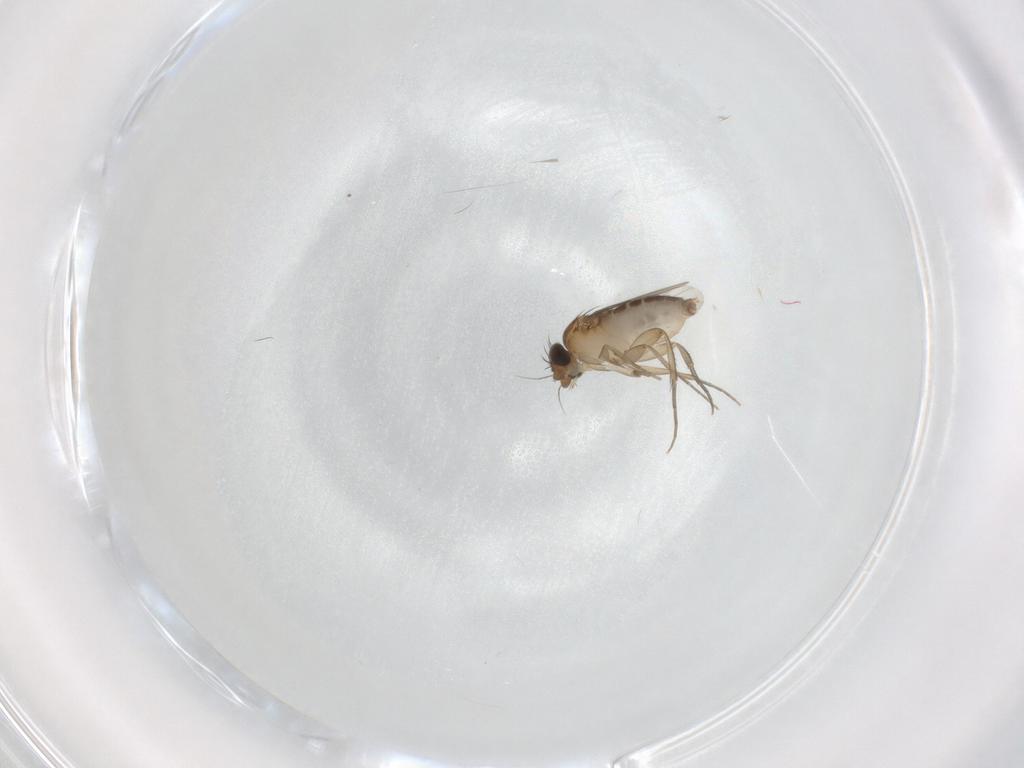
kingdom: Animalia
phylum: Arthropoda
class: Insecta
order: Diptera
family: Phoridae
